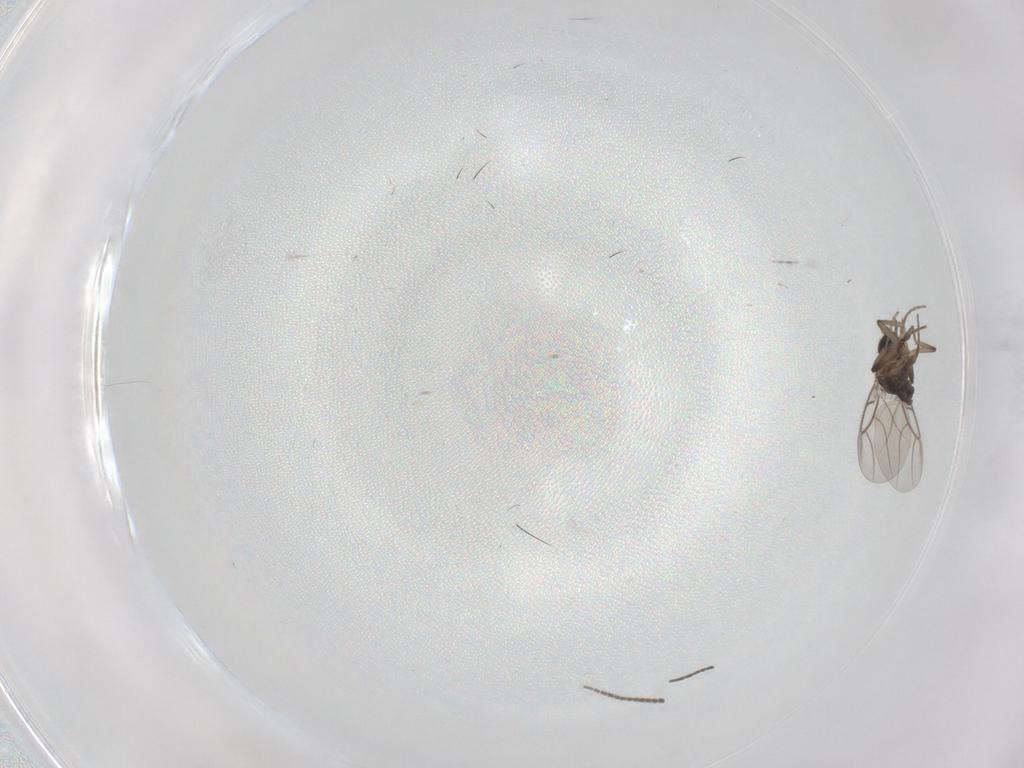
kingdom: Animalia
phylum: Arthropoda
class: Insecta
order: Diptera
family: Sciaridae
